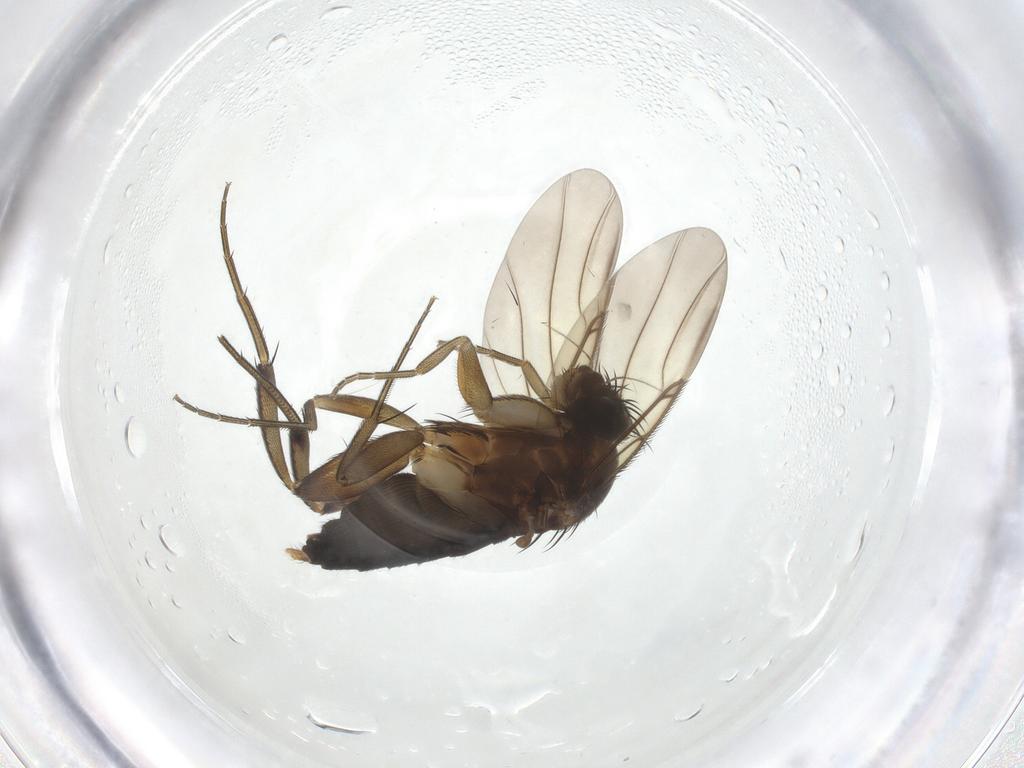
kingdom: Animalia
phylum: Arthropoda
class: Insecta
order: Diptera
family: Phoridae
